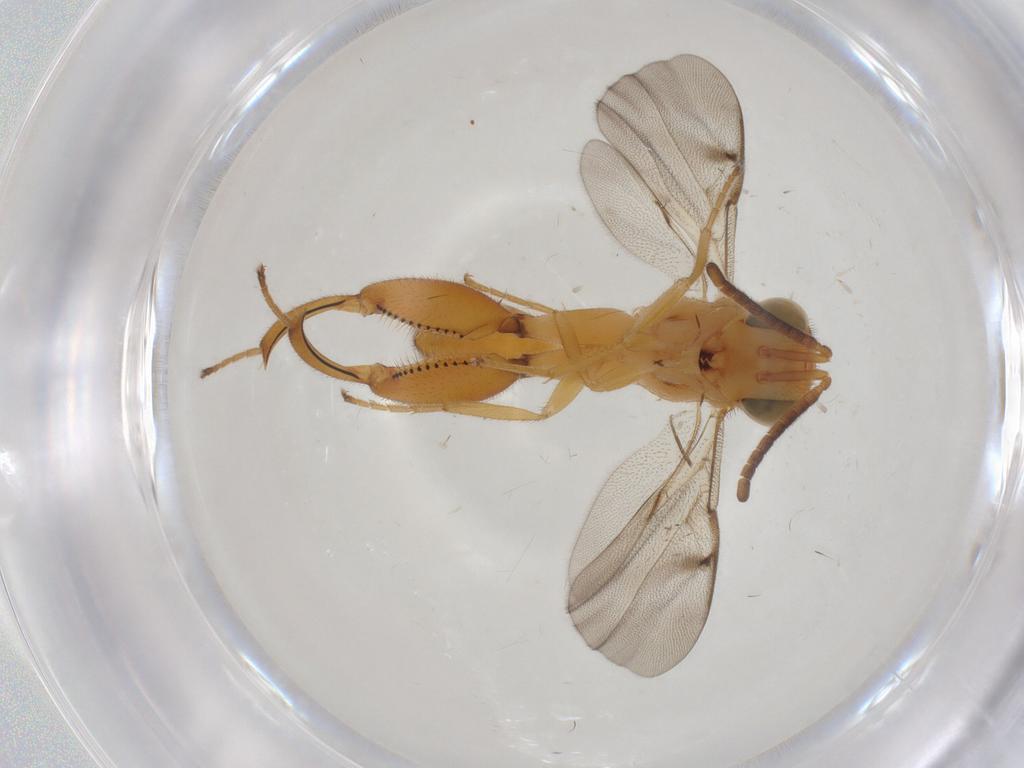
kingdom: Animalia
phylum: Arthropoda
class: Insecta
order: Hymenoptera
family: Chalcididae
